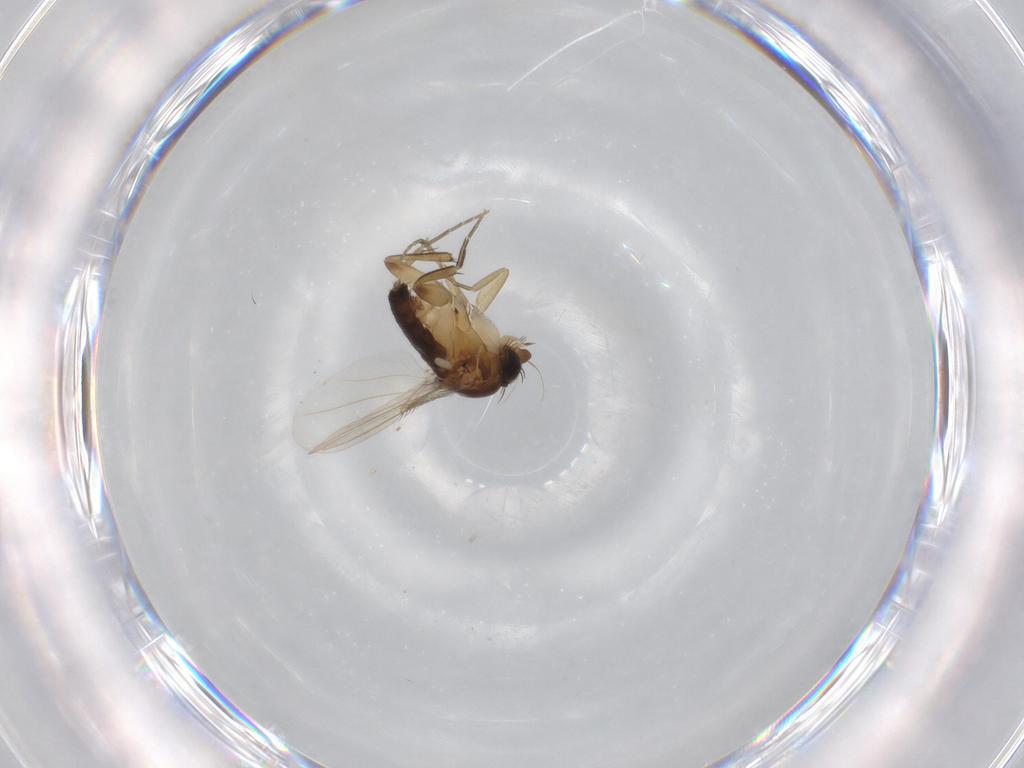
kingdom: Animalia
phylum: Arthropoda
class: Insecta
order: Diptera
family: Phoridae
